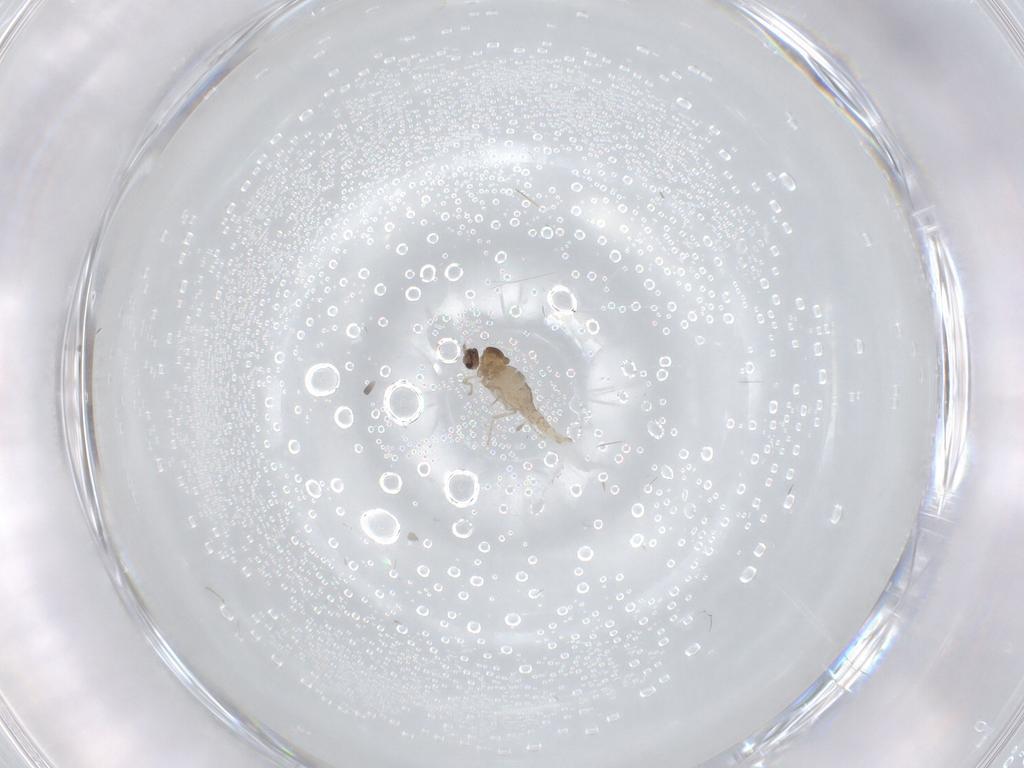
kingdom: Animalia
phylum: Arthropoda
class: Insecta
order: Diptera
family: Cecidomyiidae
